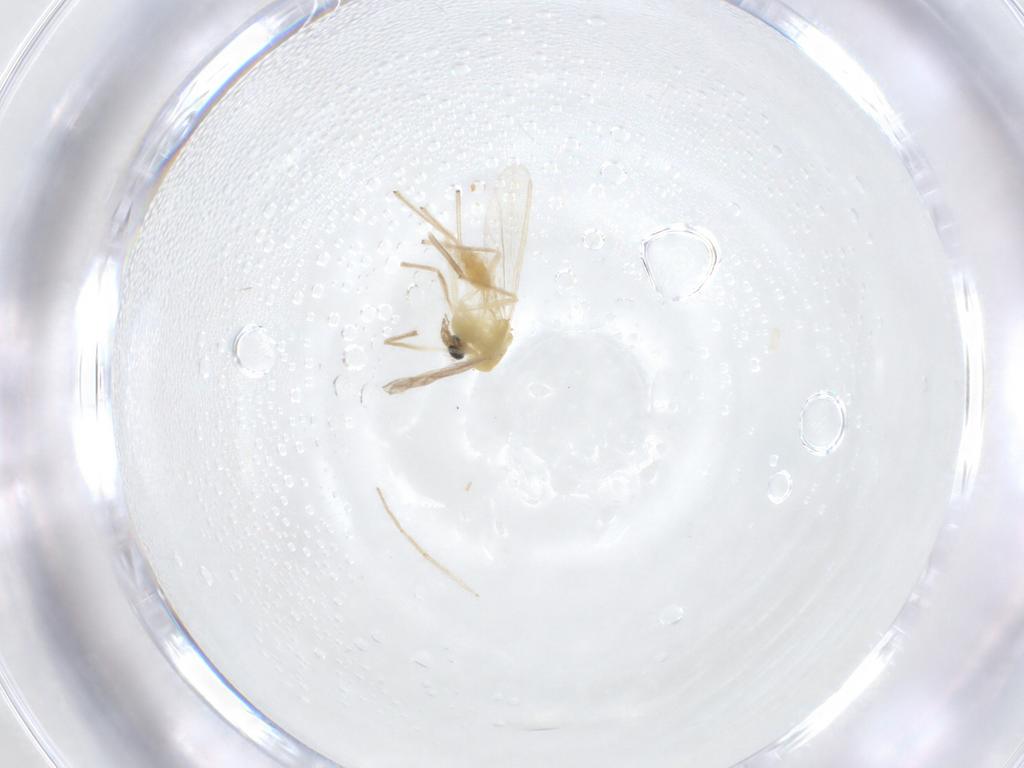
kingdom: Animalia
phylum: Arthropoda
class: Insecta
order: Diptera
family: Chironomidae
